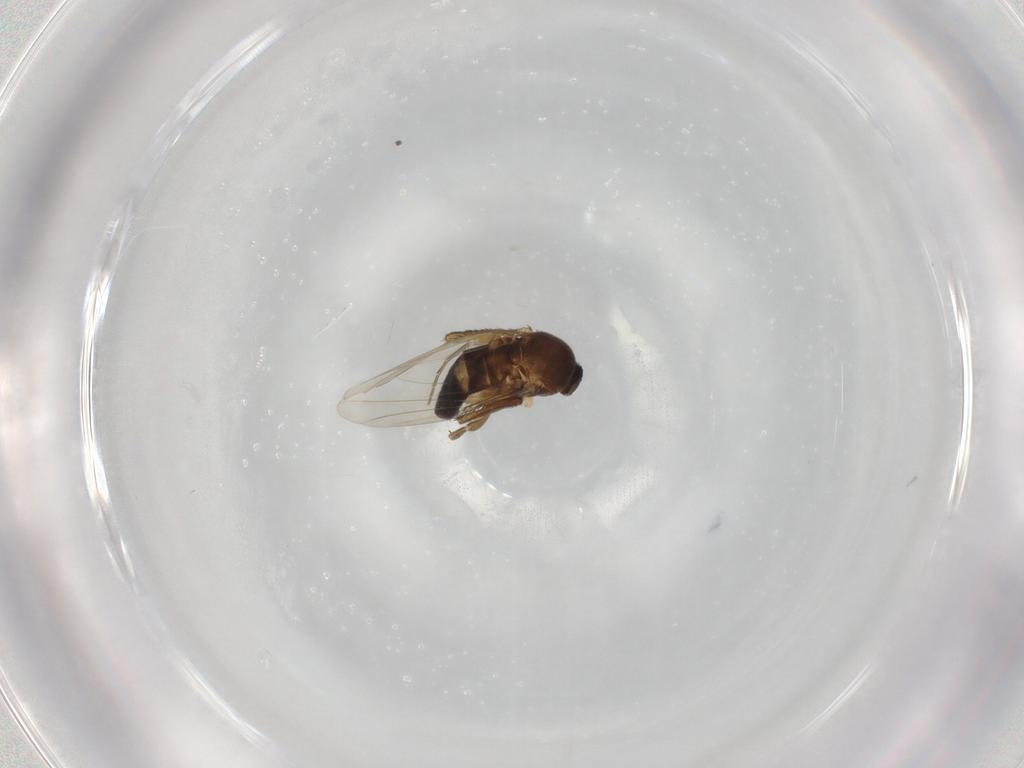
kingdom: Animalia
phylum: Arthropoda
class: Insecta
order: Diptera
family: Phoridae
